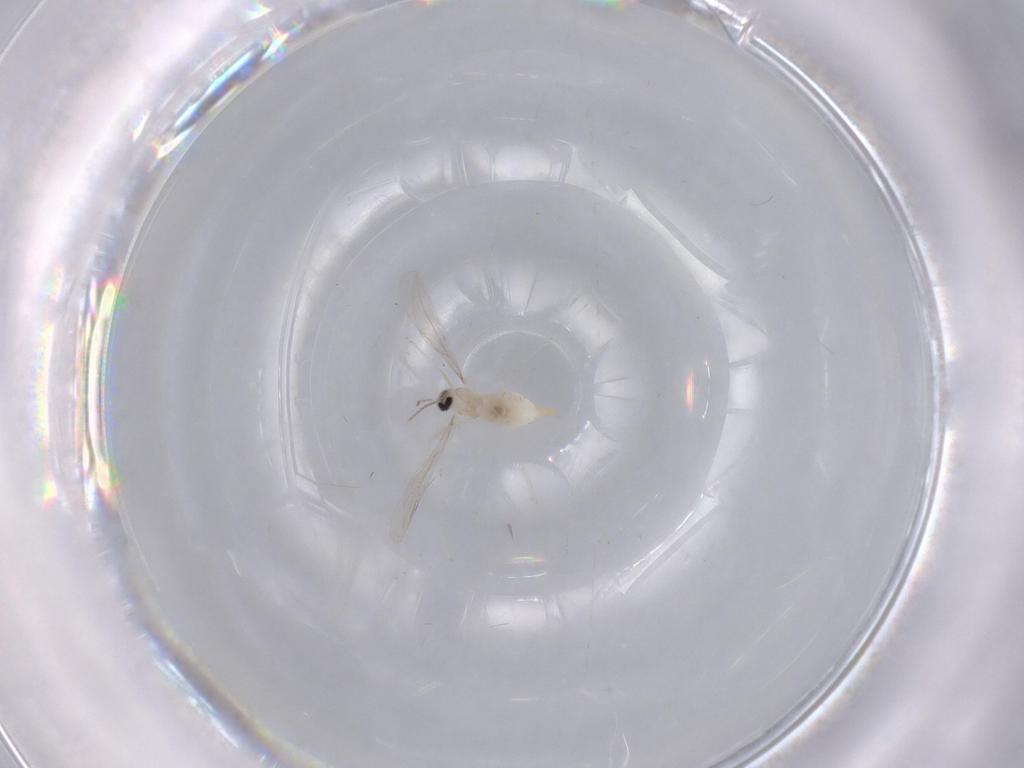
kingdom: Animalia
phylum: Arthropoda
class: Insecta
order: Diptera
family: Cecidomyiidae
